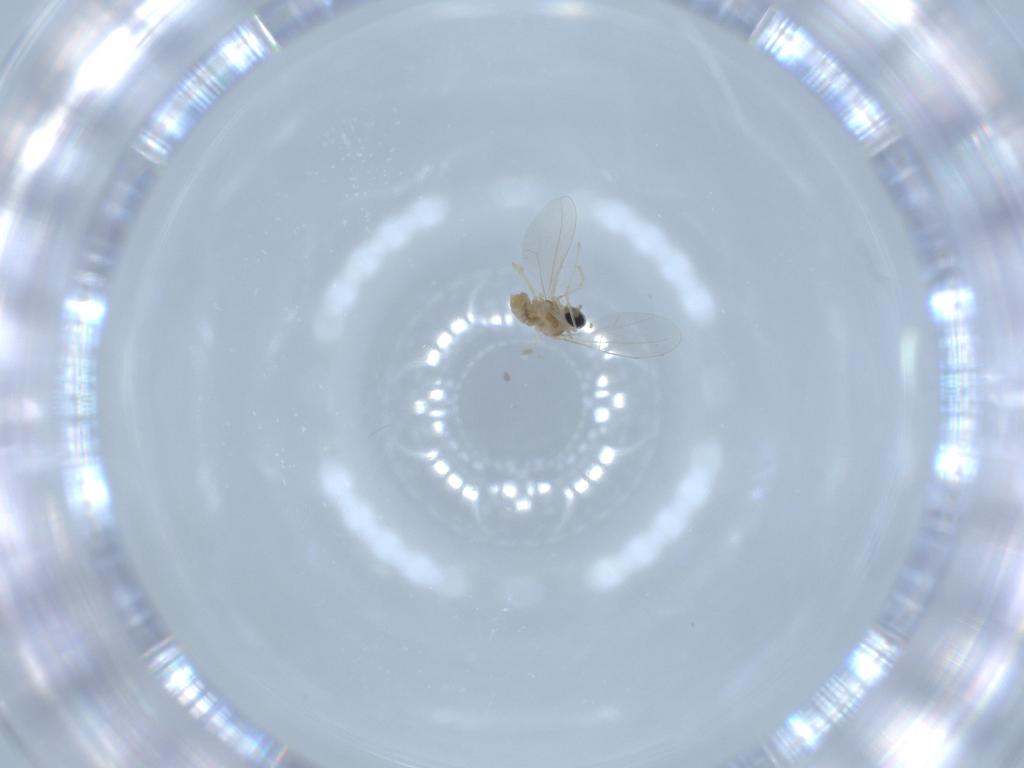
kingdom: Animalia
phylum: Arthropoda
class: Insecta
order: Diptera
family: Cecidomyiidae
